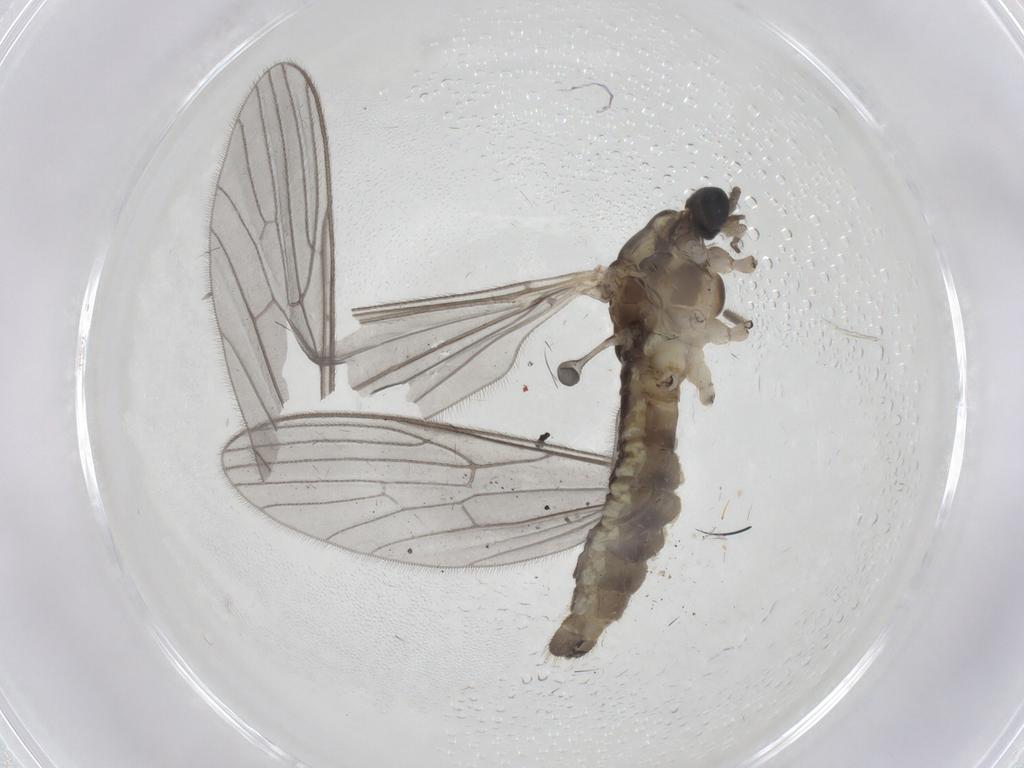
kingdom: Animalia
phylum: Arthropoda
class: Insecta
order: Diptera
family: Limoniidae
